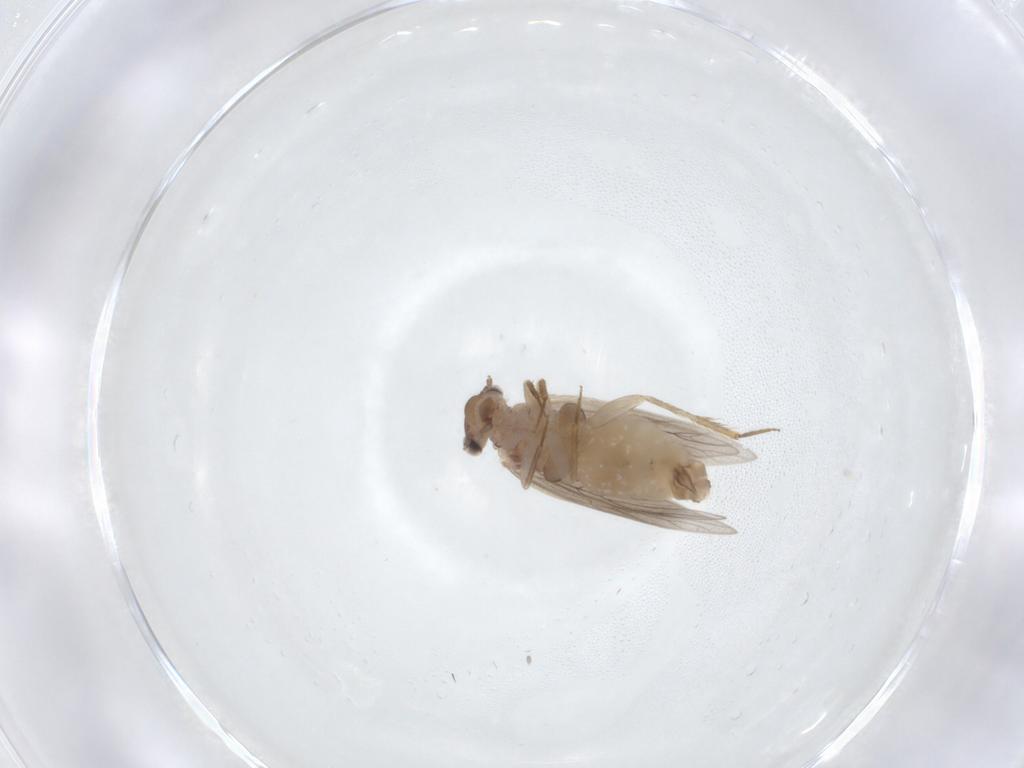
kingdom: Animalia
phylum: Arthropoda
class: Insecta
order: Psocodea
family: Lepidopsocidae
